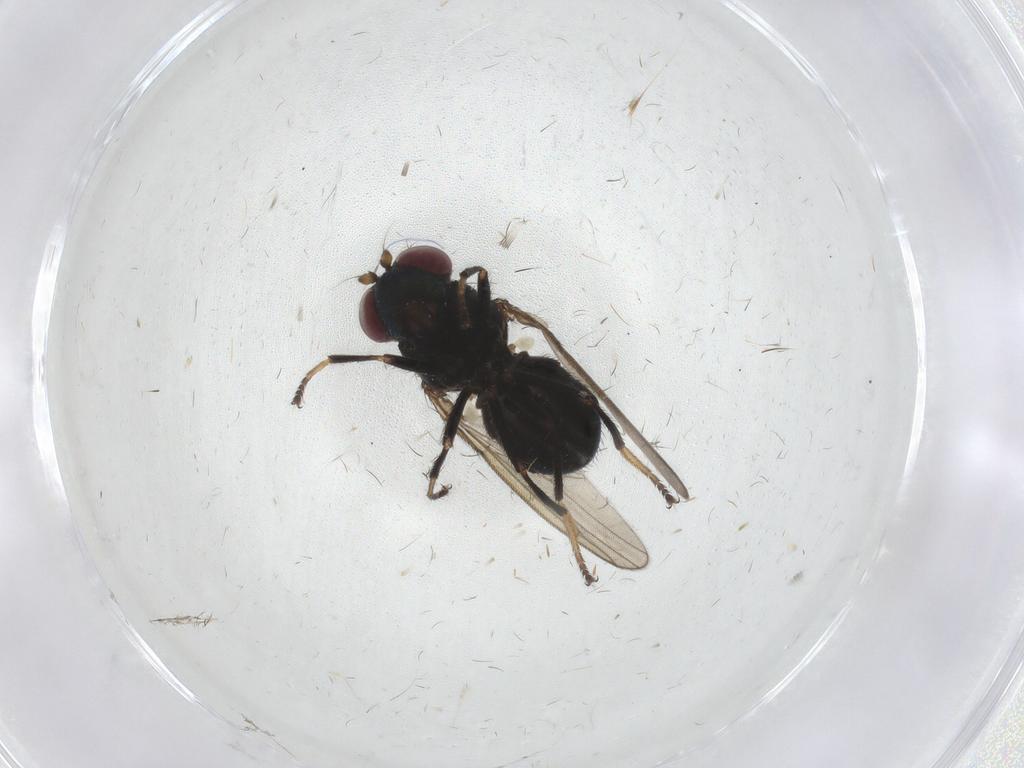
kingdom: Animalia
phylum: Arthropoda
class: Insecta
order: Diptera
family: Ephydridae
